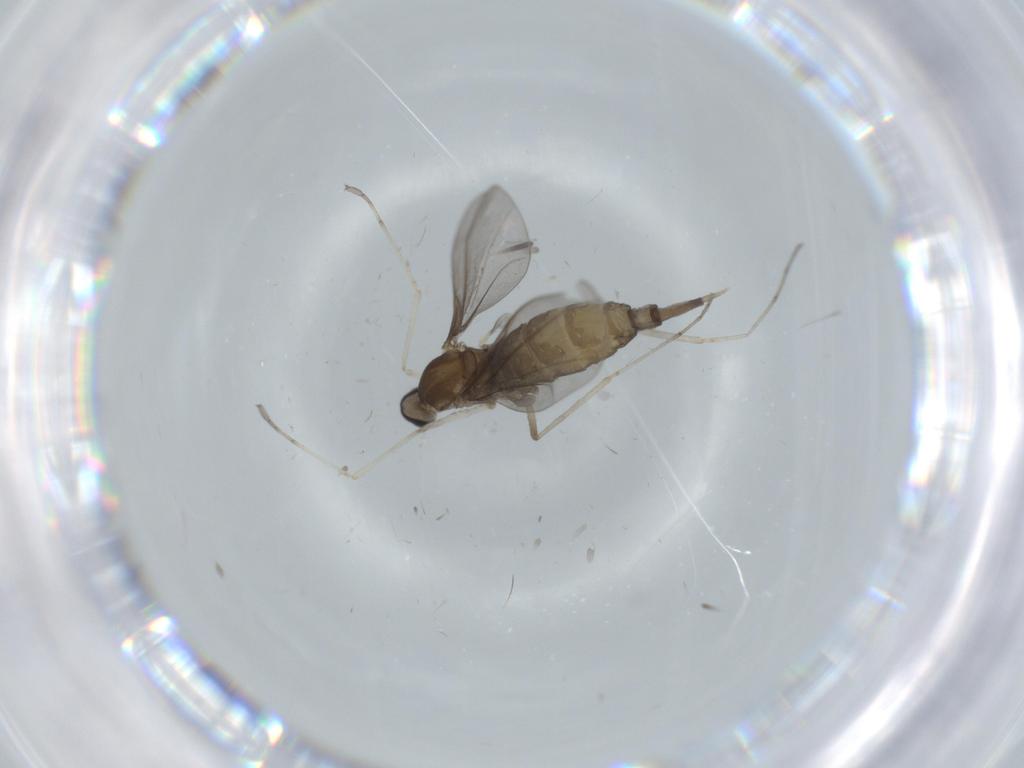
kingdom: Animalia
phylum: Arthropoda
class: Insecta
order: Diptera
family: Cecidomyiidae
